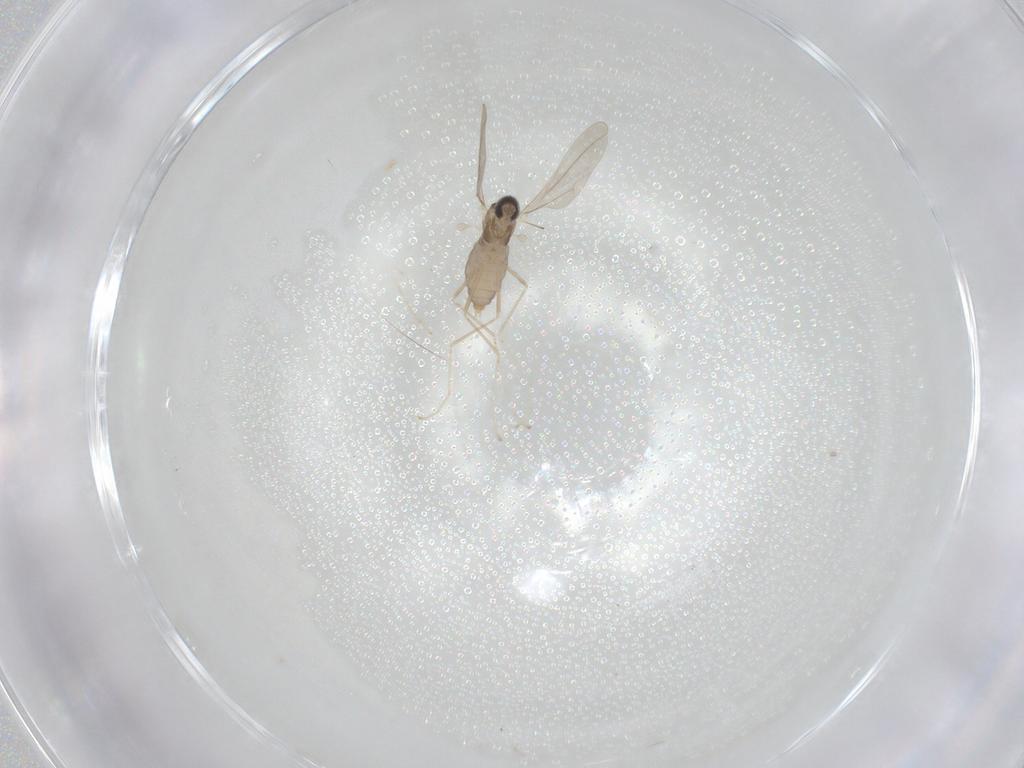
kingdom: Animalia
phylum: Arthropoda
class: Insecta
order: Diptera
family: Cecidomyiidae
